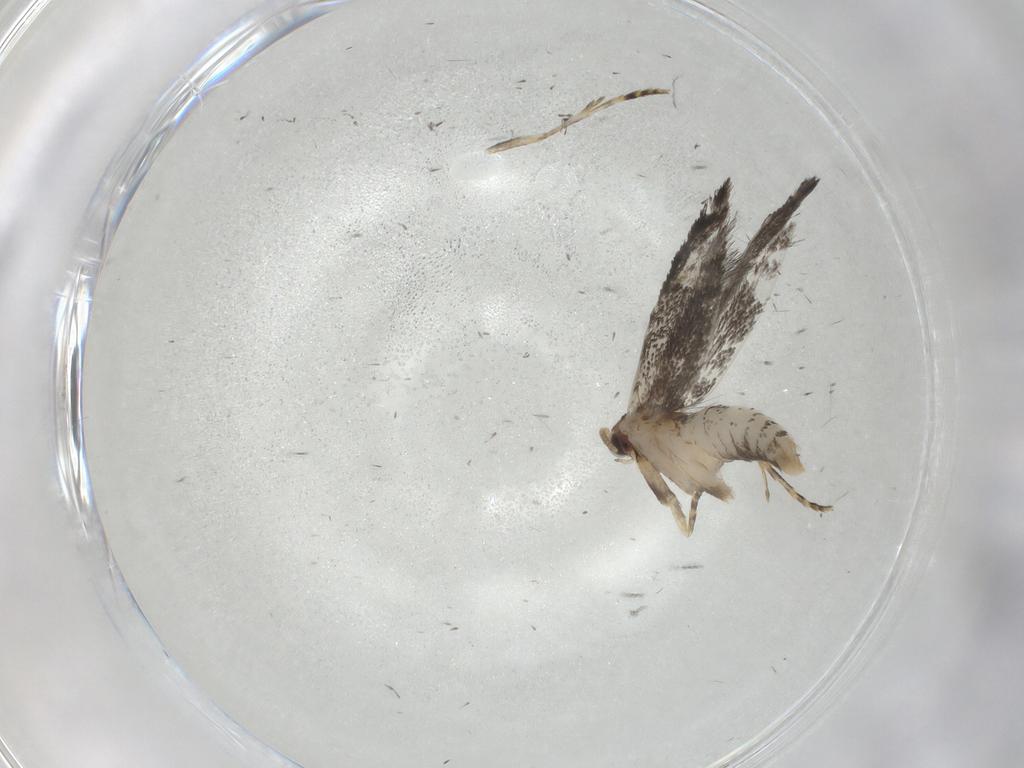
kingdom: Animalia
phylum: Arthropoda
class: Insecta
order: Lepidoptera
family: Tineidae
